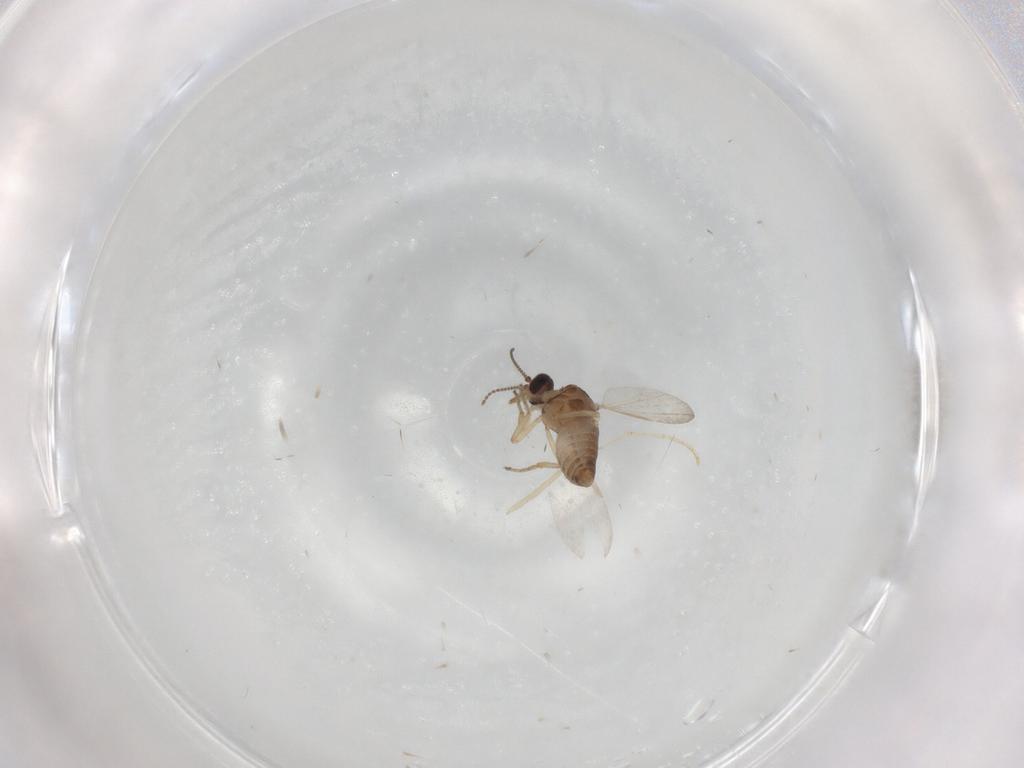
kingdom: Animalia
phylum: Arthropoda
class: Insecta
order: Diptera
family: Ceratopogonidae
